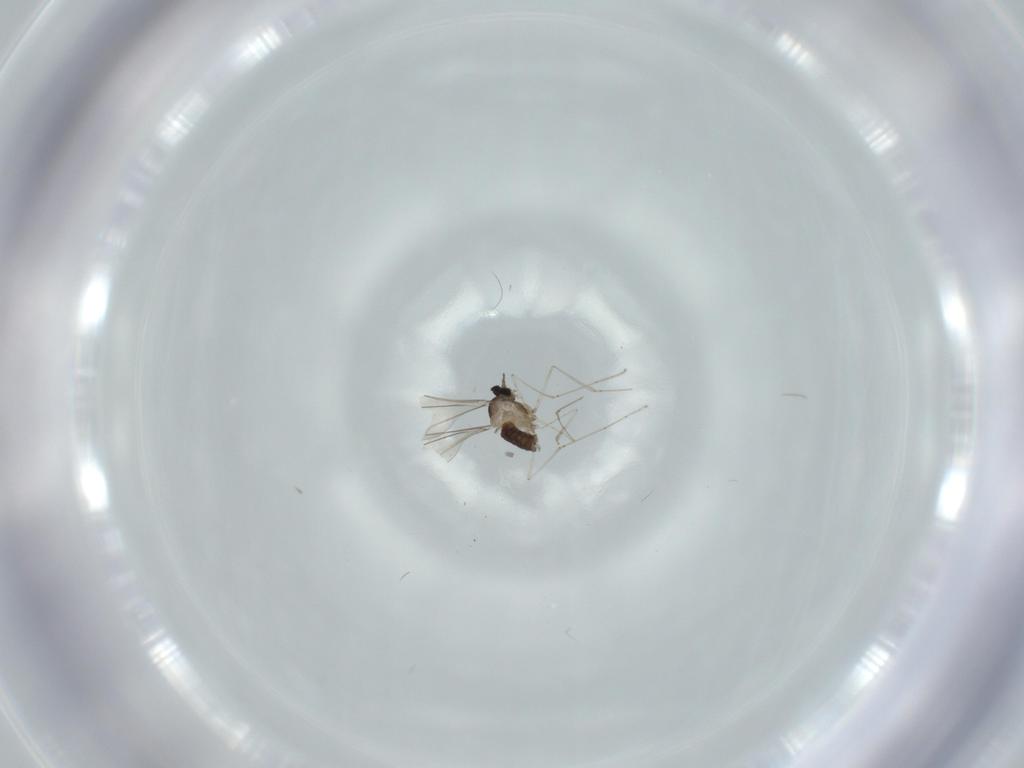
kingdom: Animalia
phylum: Arthropoda
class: Insecta
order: Diptera
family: Cecidomyiidae
